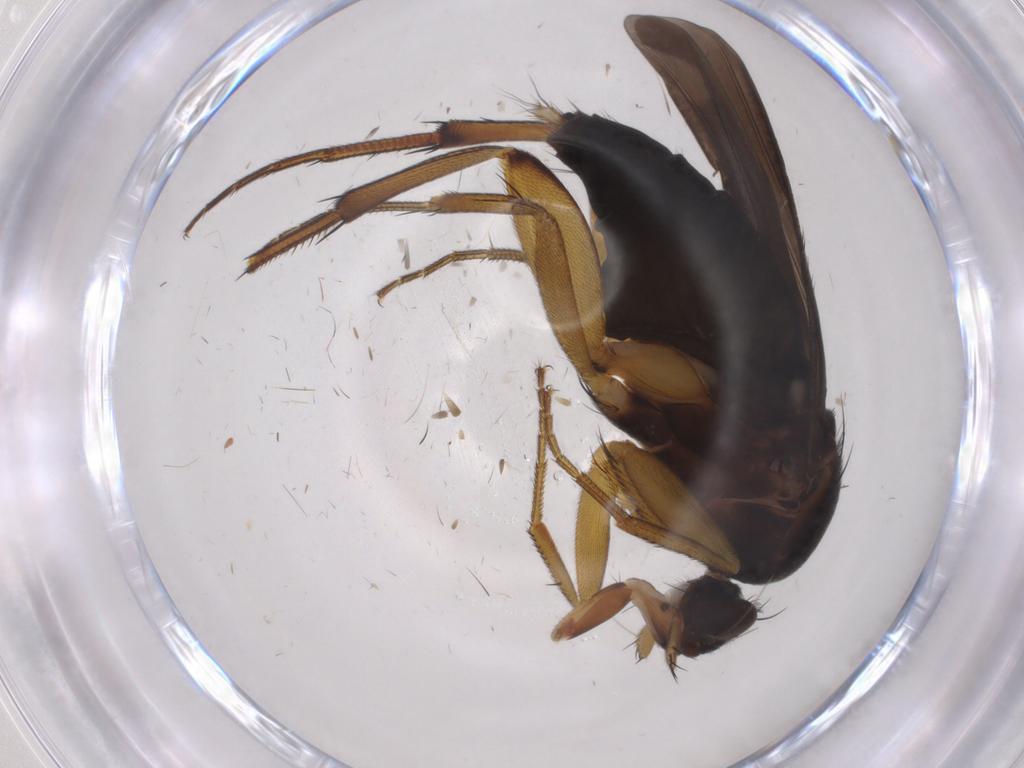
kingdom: Animalia
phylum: Arthropoda
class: Insecta
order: Diptera
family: Phoridae
